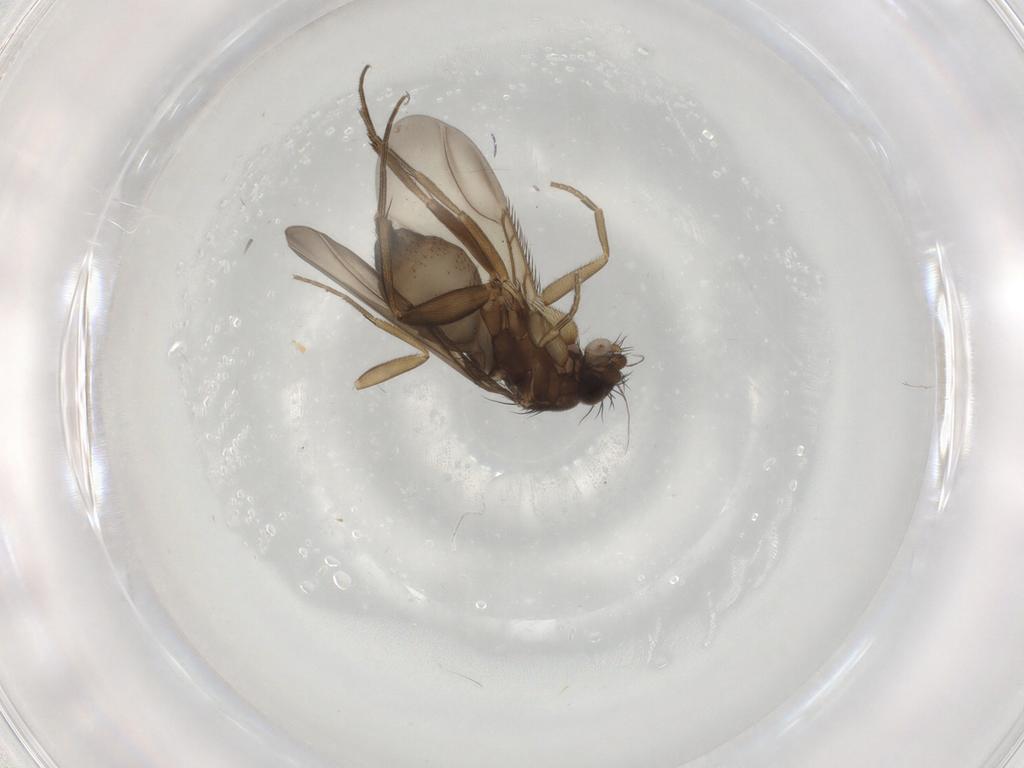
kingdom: Animalia
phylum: Arthropoda
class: Insecta
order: Diptera
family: Phoridae
